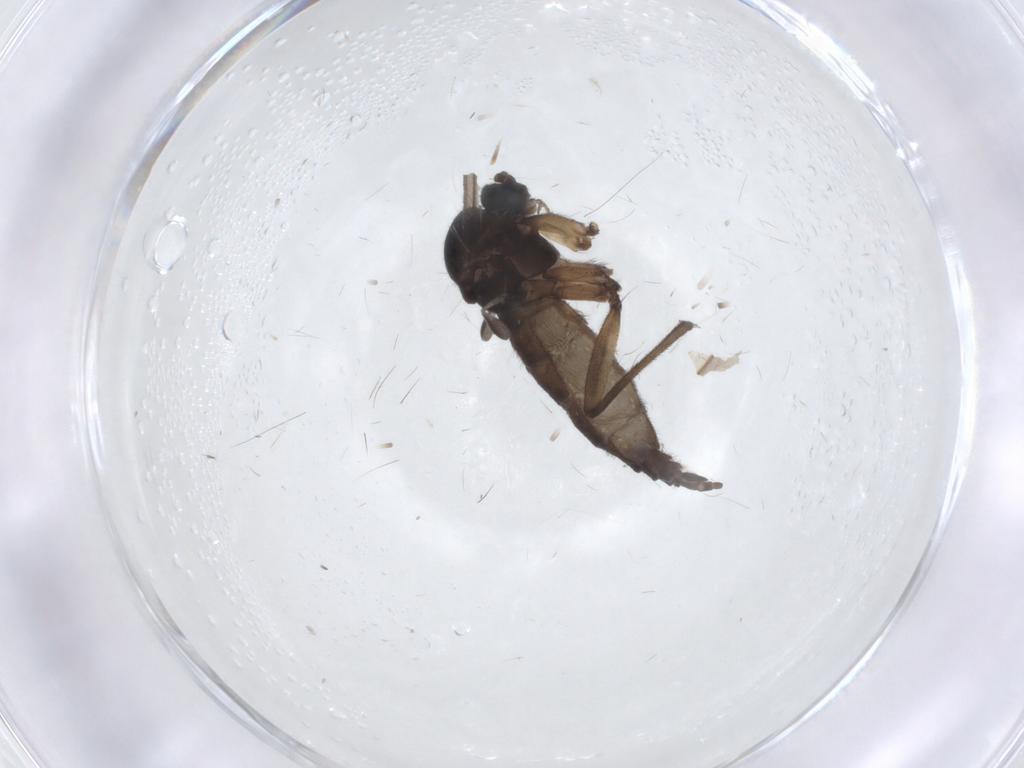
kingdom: Animalia
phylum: Arthropoda
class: Insecta
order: Diptera
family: Sciaridae
